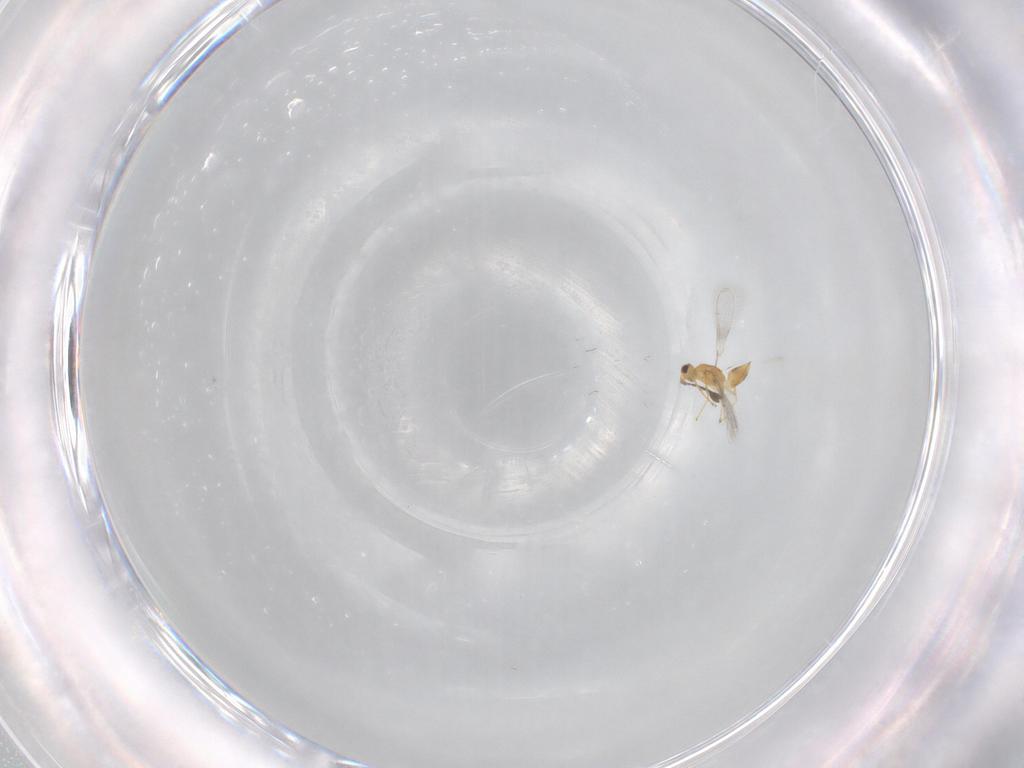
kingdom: Animalia
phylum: Arthropoda
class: Insecta
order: Hymenoptera
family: Mymaridae
